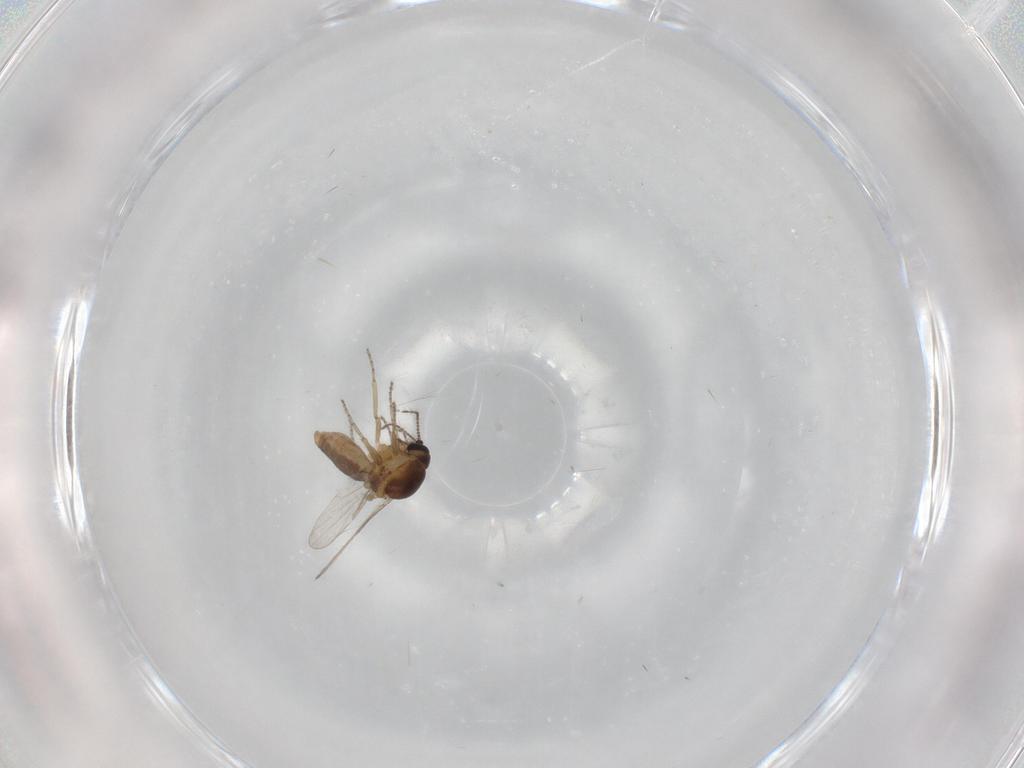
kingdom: Animalia
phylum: Arthropoda
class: Insecta
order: Diptera
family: Ceratopogonidae
